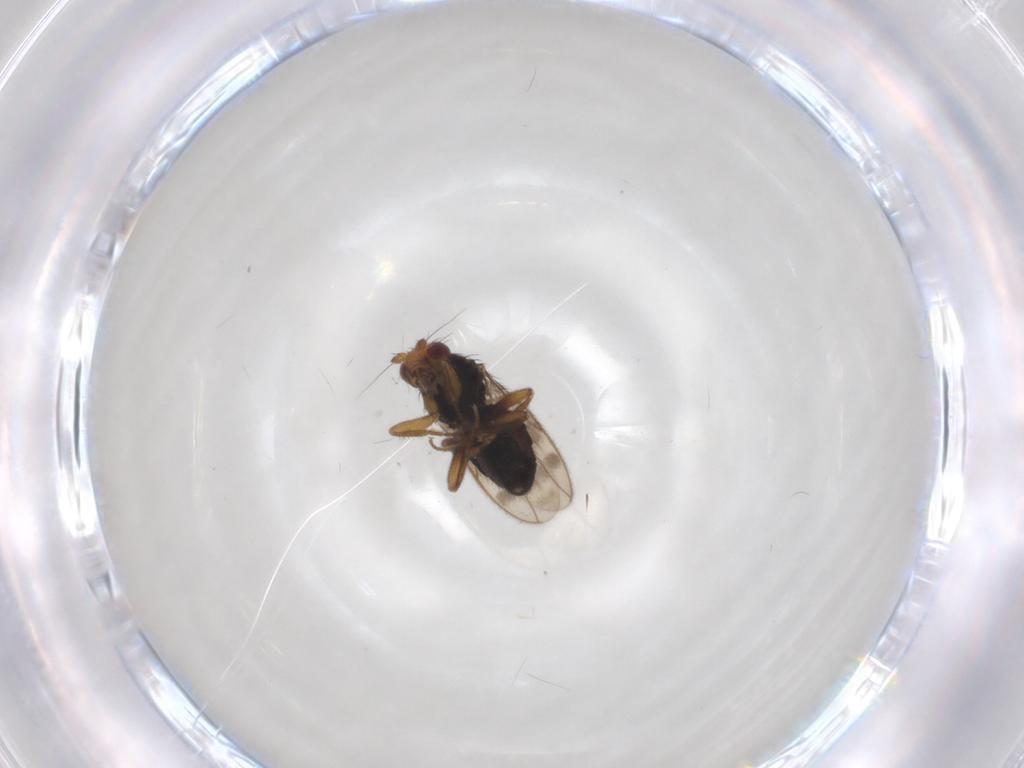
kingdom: Animalia
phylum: Arthropoda
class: Insecta
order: Diptera
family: Sphaeroceridae
